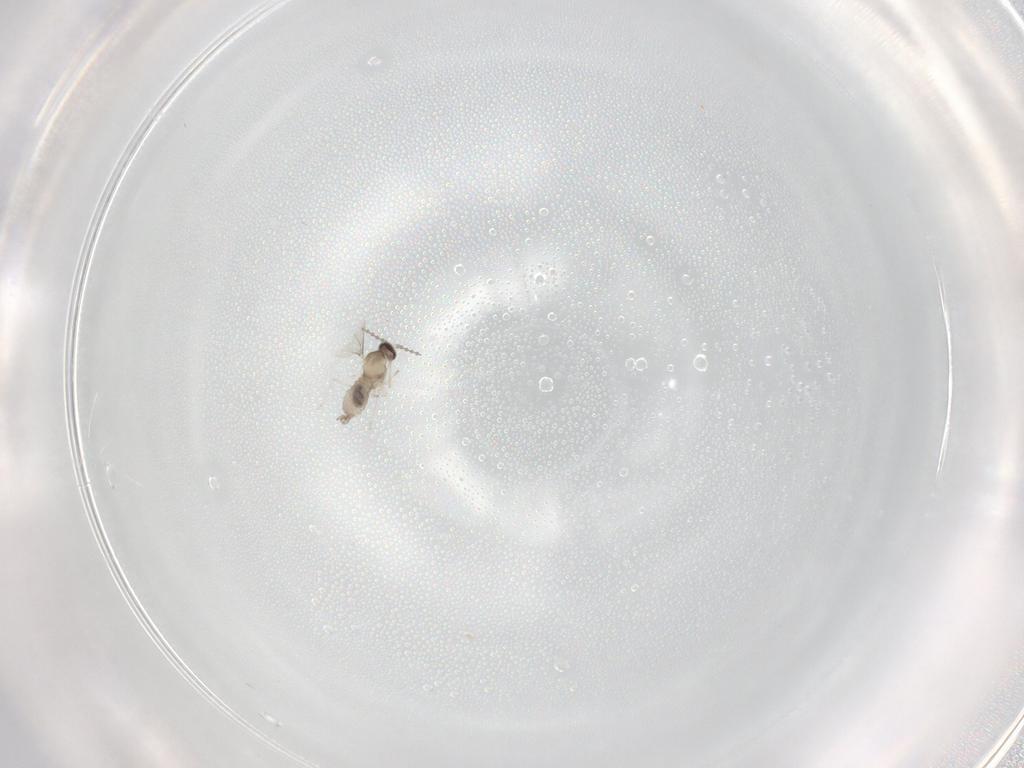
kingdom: Animalia
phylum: Arthropoda
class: Insecta
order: Diptera
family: Cecidomyiidae
